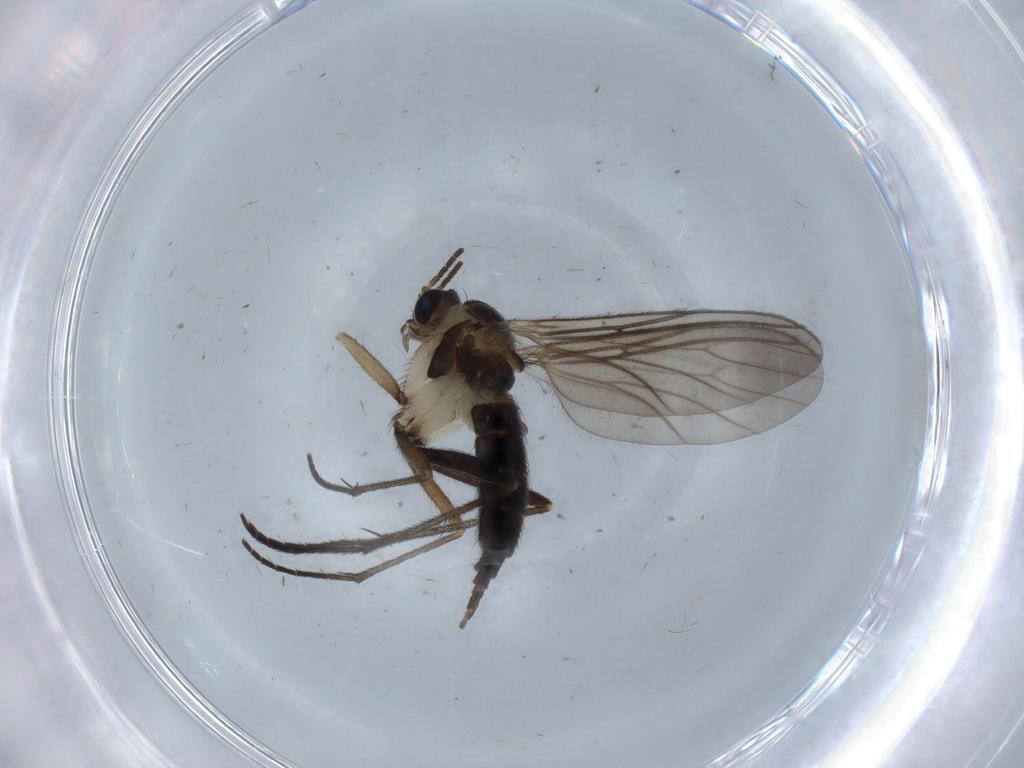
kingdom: Animalia
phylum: Arthropoda
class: Insecta
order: Diptera
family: Sciaridae
